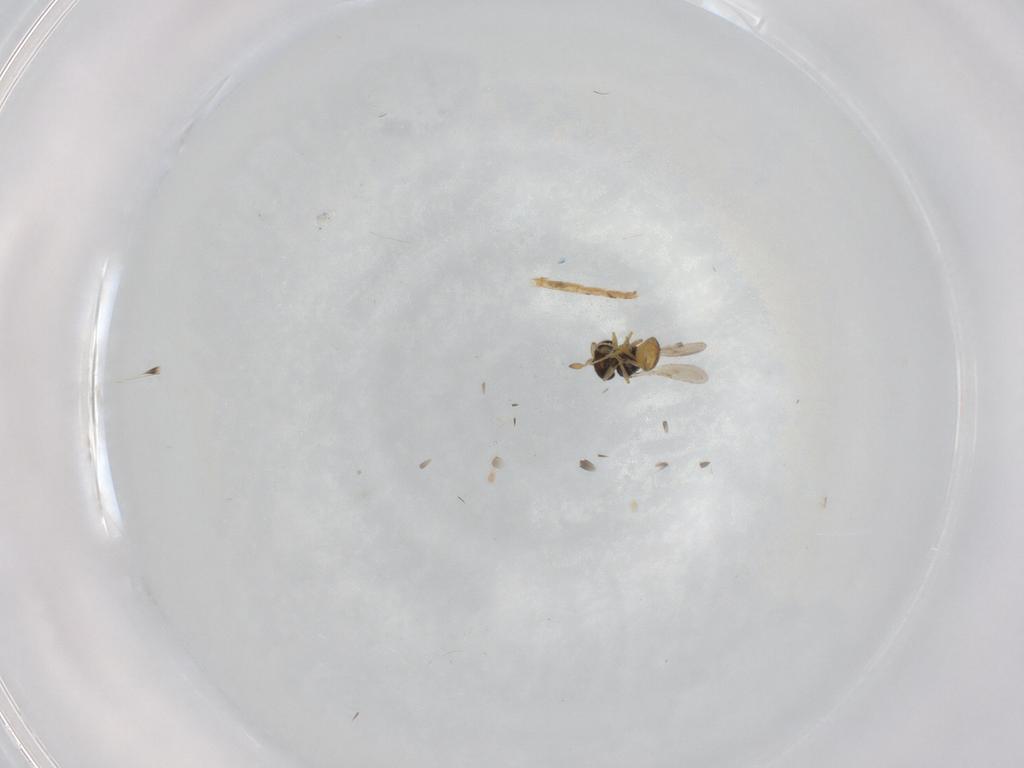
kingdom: Animalia
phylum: Arthropoda
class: Insecta
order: Hymenoptera
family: Scelionidae
